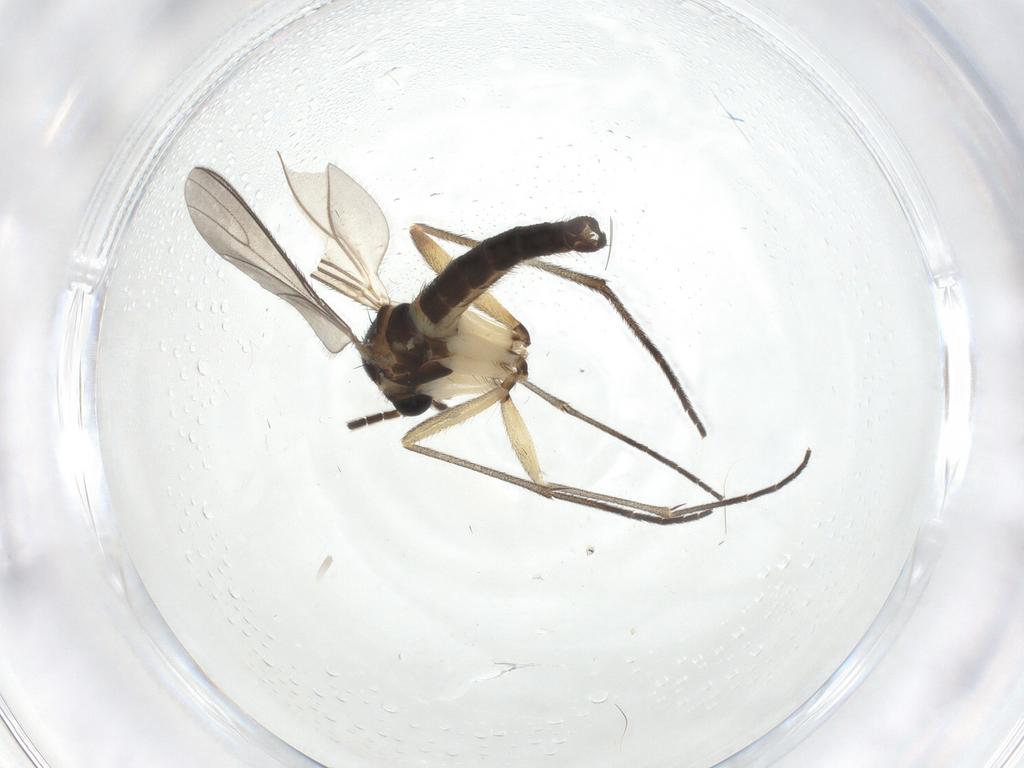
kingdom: Animalia
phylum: Arthropoda
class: Insecta
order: Diptera
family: Sciaridae
